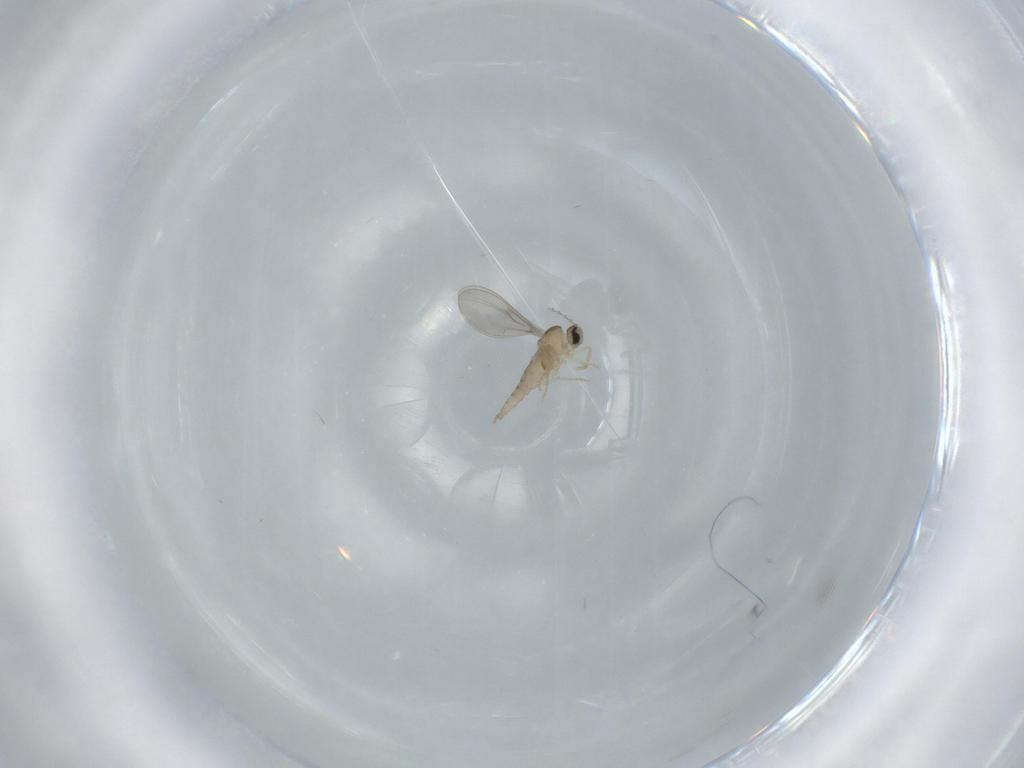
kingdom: Animalia
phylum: Arthropoda
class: Insecta
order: Diptera
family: Cecidomyiidae
